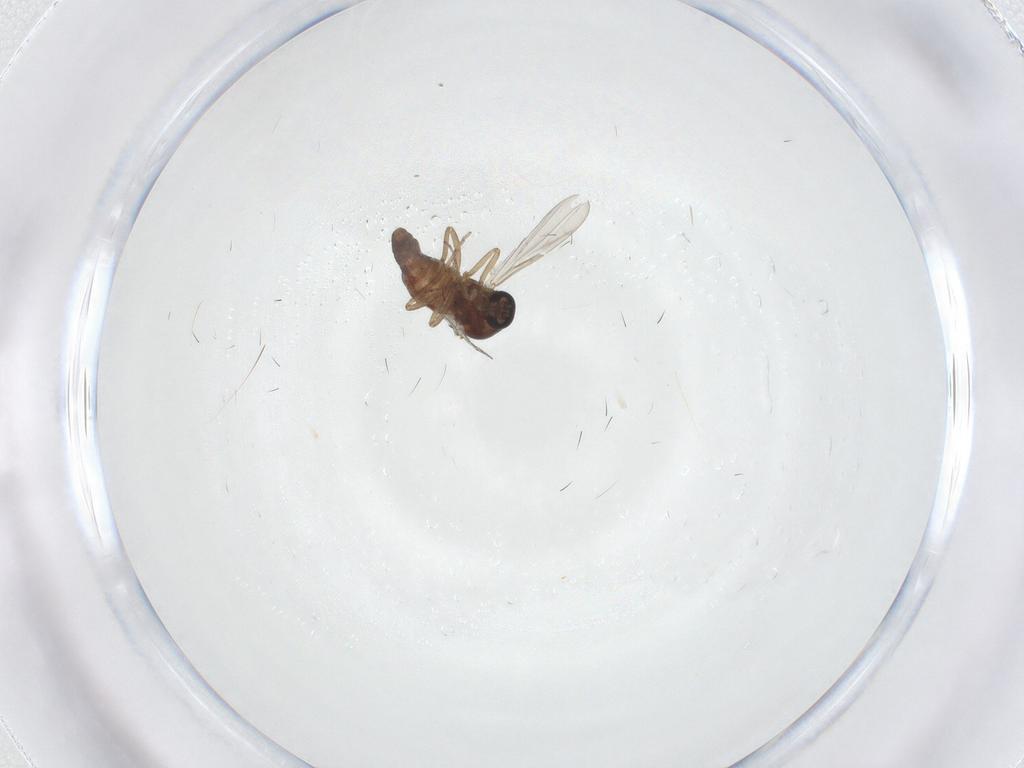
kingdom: Animalia
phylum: Arthropoda
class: Insecta
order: Diptera
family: Ceratopogonidae
